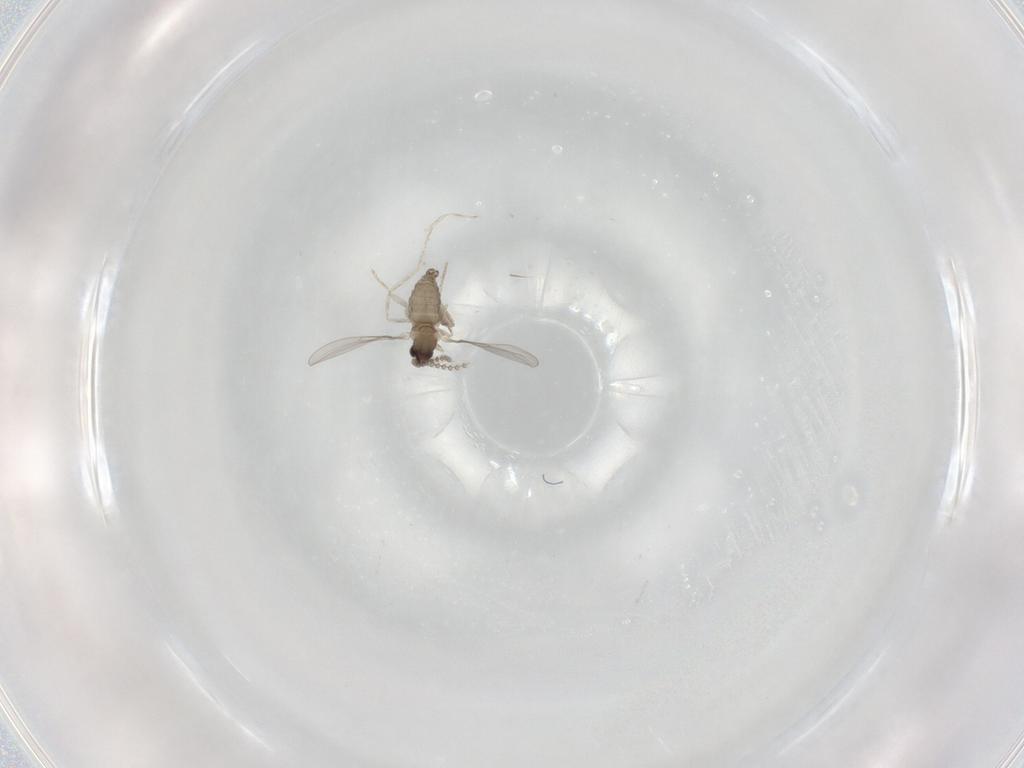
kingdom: Animalia
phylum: Arthropoda
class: Insecta
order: Diptera
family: Cecidomyiidae
